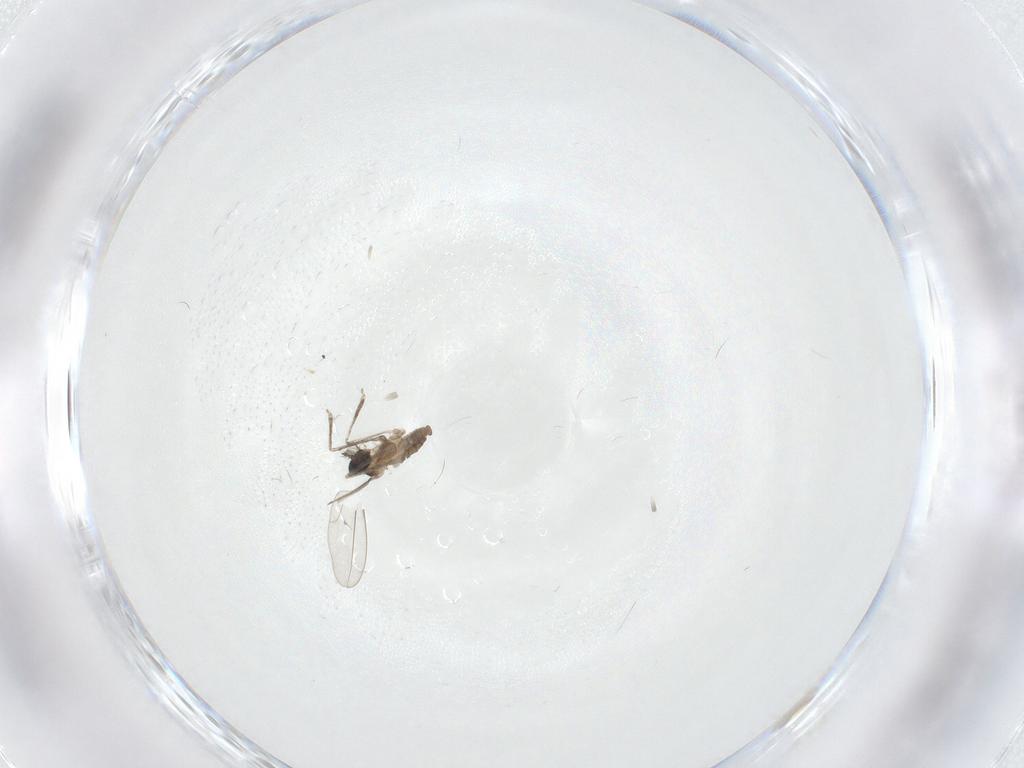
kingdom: Animalia
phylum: Arthropoda
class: Insecta
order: Diptera
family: Cecidomyiidae
